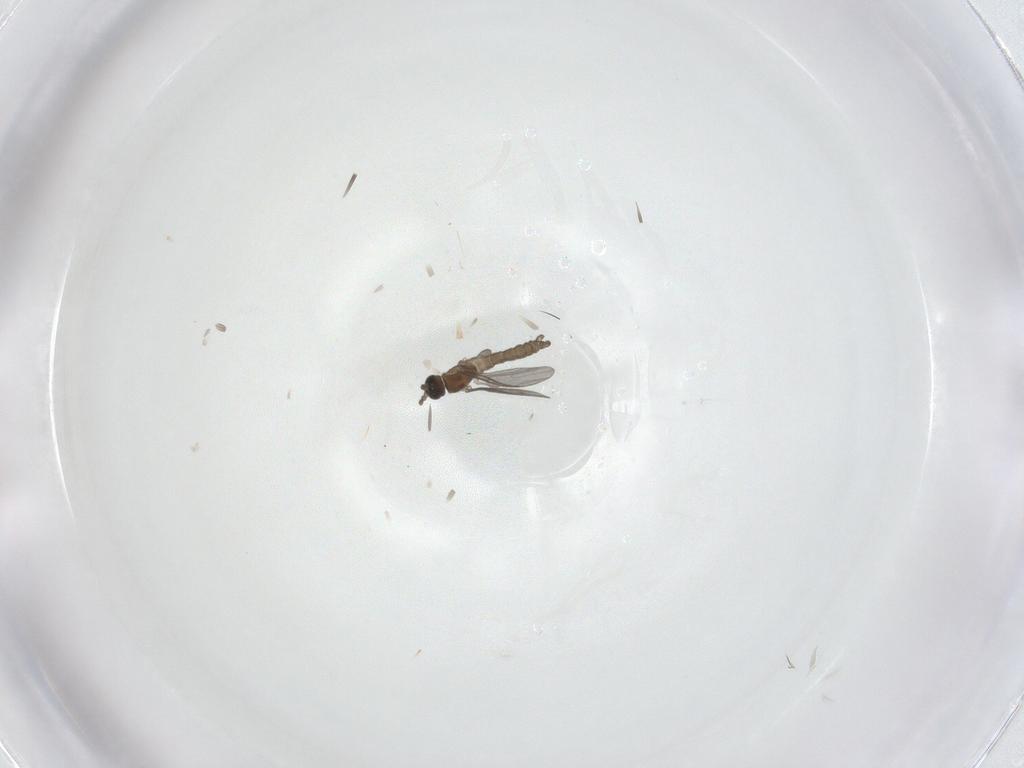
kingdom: Animalia
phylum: Arthropoda
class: Insecta
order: Diptera
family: Sciaridae
